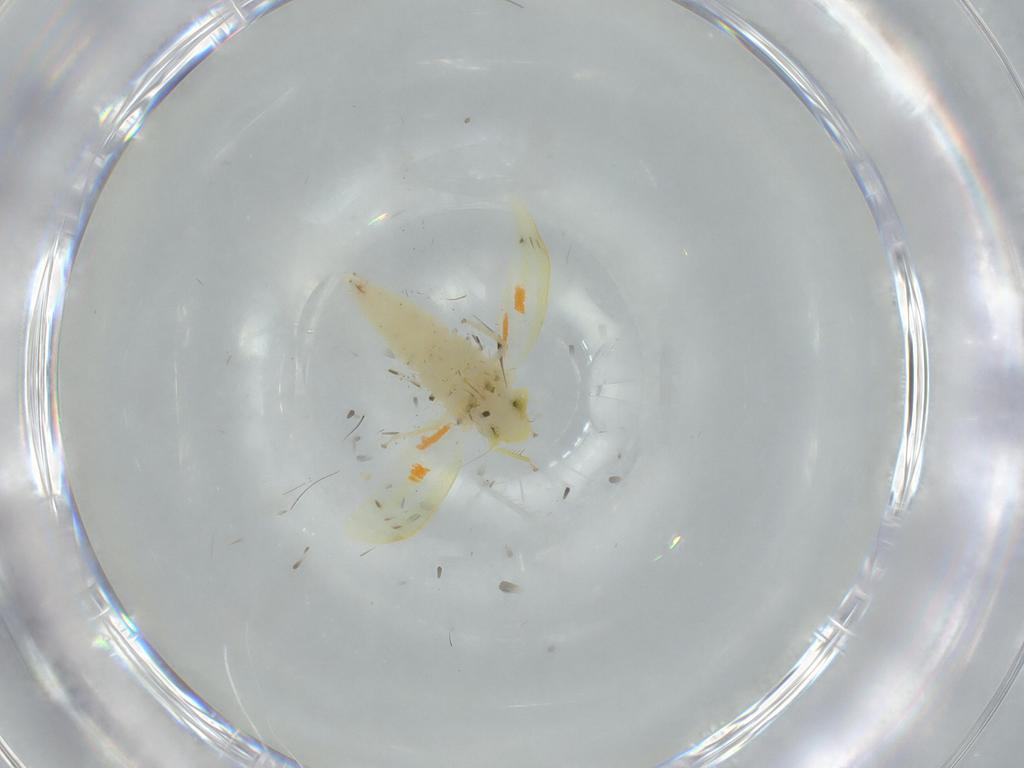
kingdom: Animalia
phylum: Arthropoda
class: Insecta
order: Hemiptera
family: Cicadellidae
